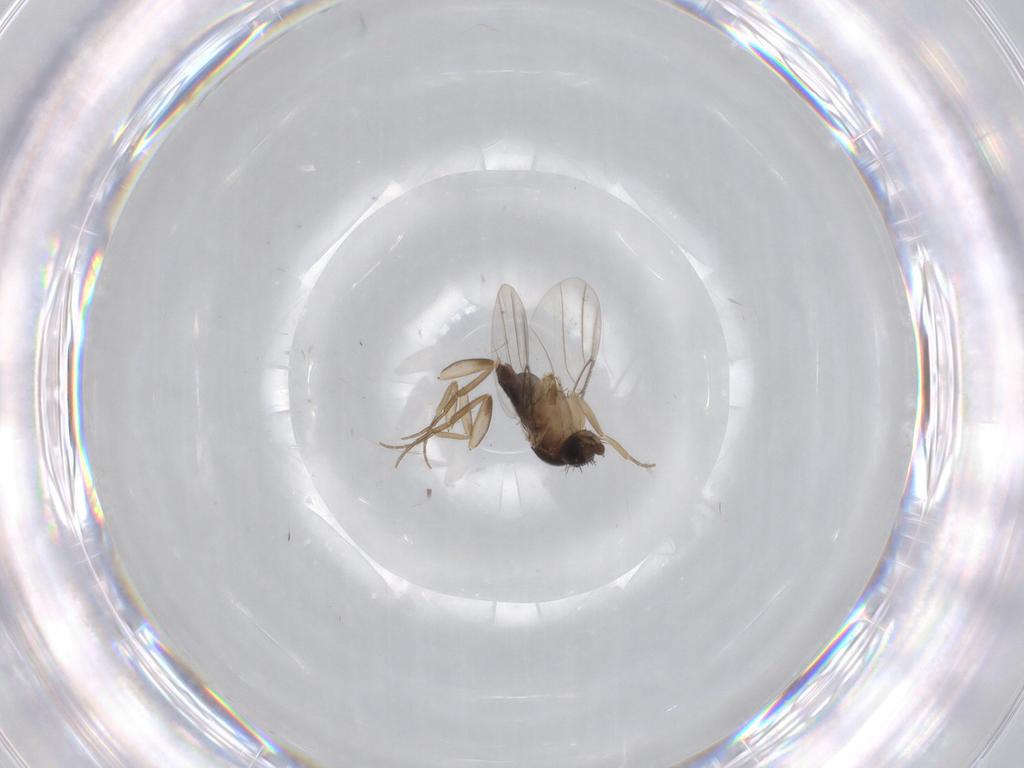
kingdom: Animalia
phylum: Arthropoda
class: Insecta
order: Diptera
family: Phoridae
